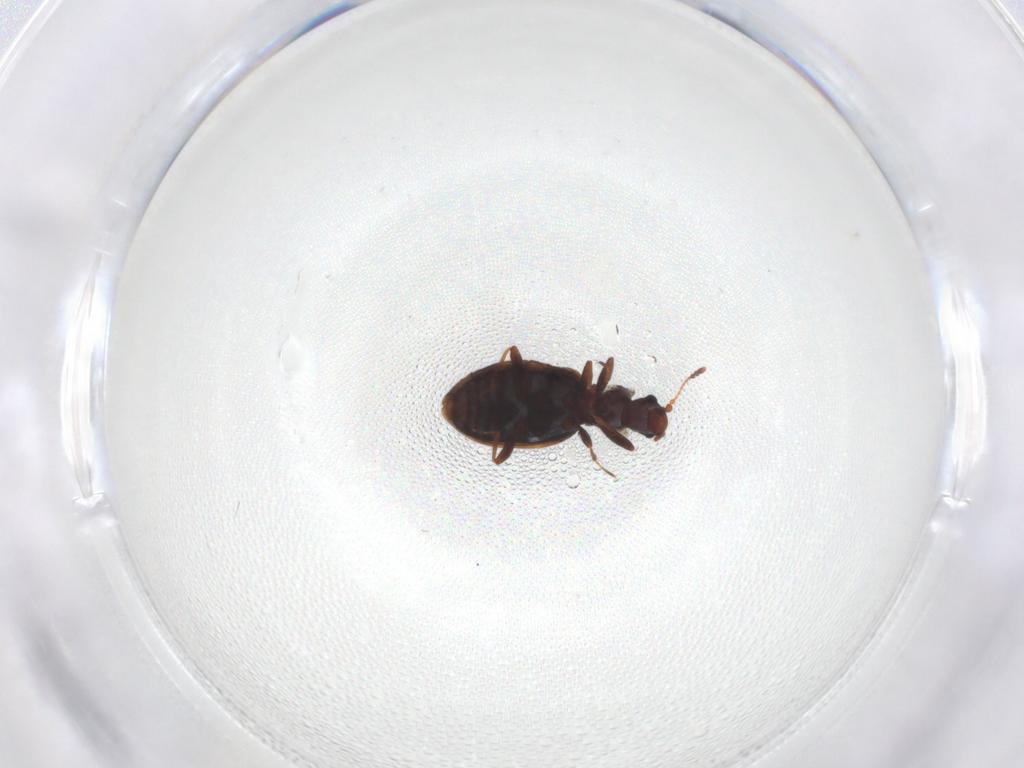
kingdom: Animalia
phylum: Arthropoda
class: Insecta
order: Coleoptera
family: Latridiidae
